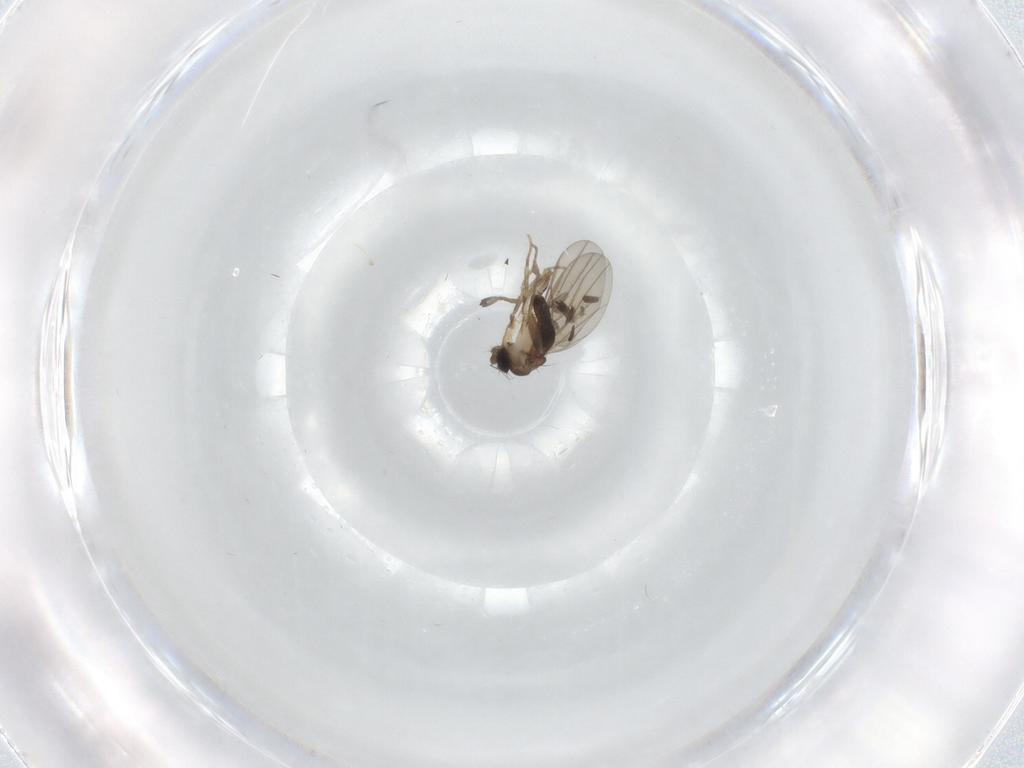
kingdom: Animalia
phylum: Arthropoda
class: Insecta
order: Diptera
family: Phoridae
